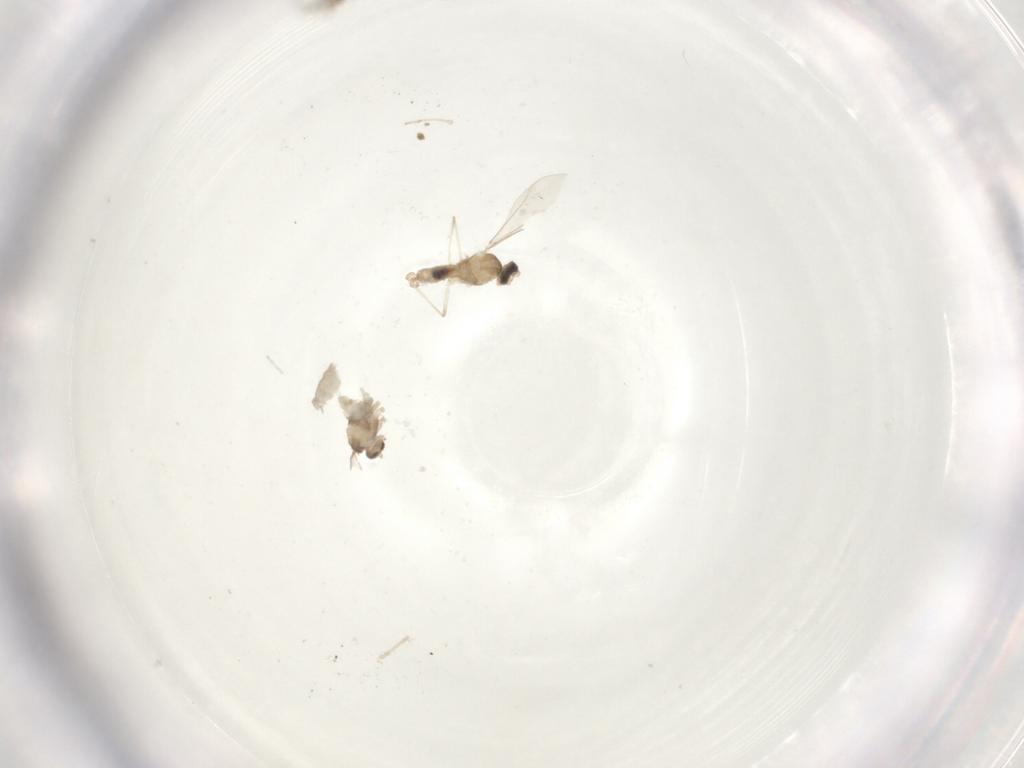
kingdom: Animalia
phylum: Arthropoda
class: Insecta
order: Diptera
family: Cecidomyiidae
